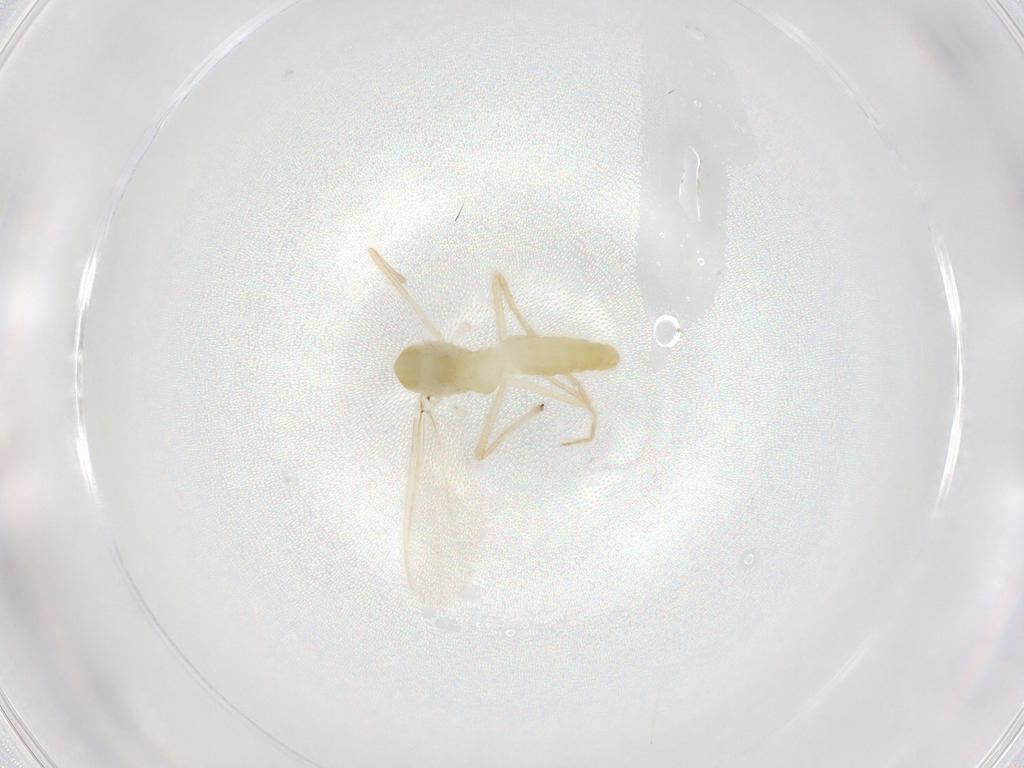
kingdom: Animalia
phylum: Arthropoda
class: Insecta
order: Diptera
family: Chironomidae
